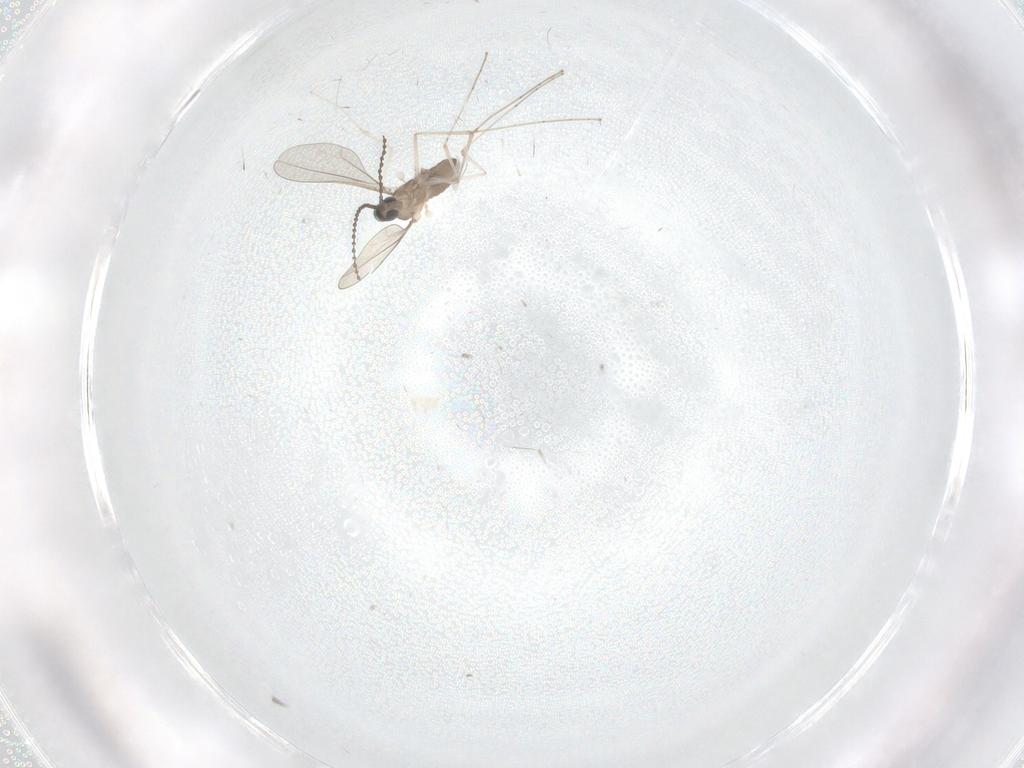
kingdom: Animalia
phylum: Arthropoda
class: Insecta
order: Diptera
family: Cecidomyiidae
